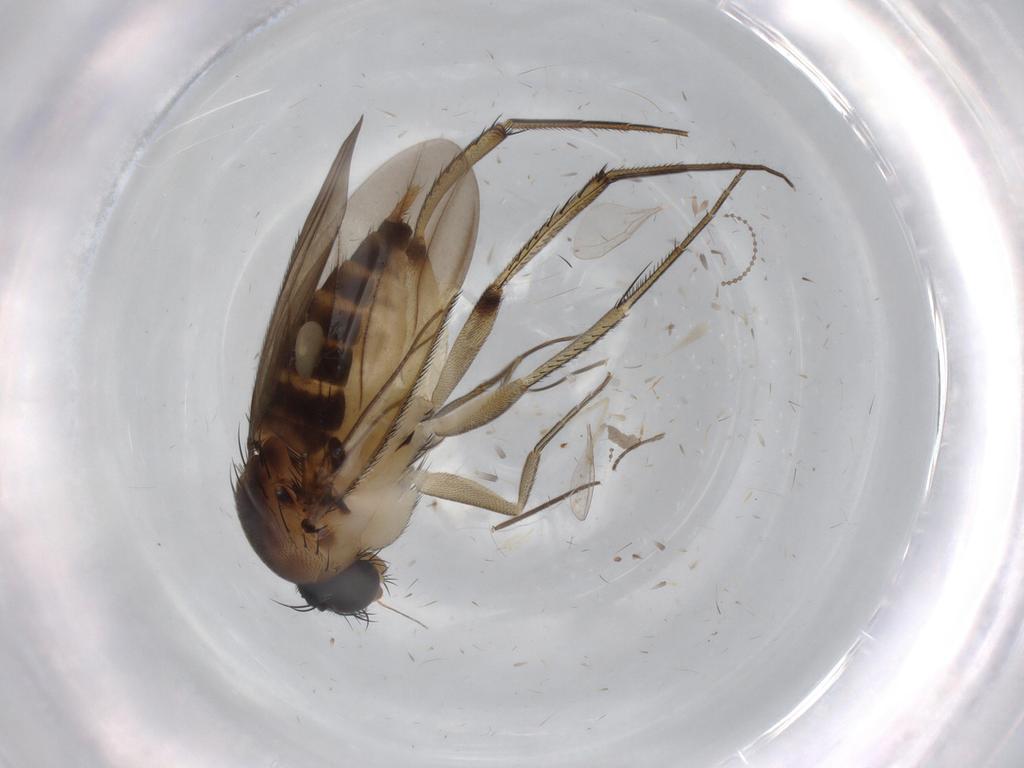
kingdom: Animalia
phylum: Arthropoda
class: Insecta
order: Diptera
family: Cecidomyiidae
